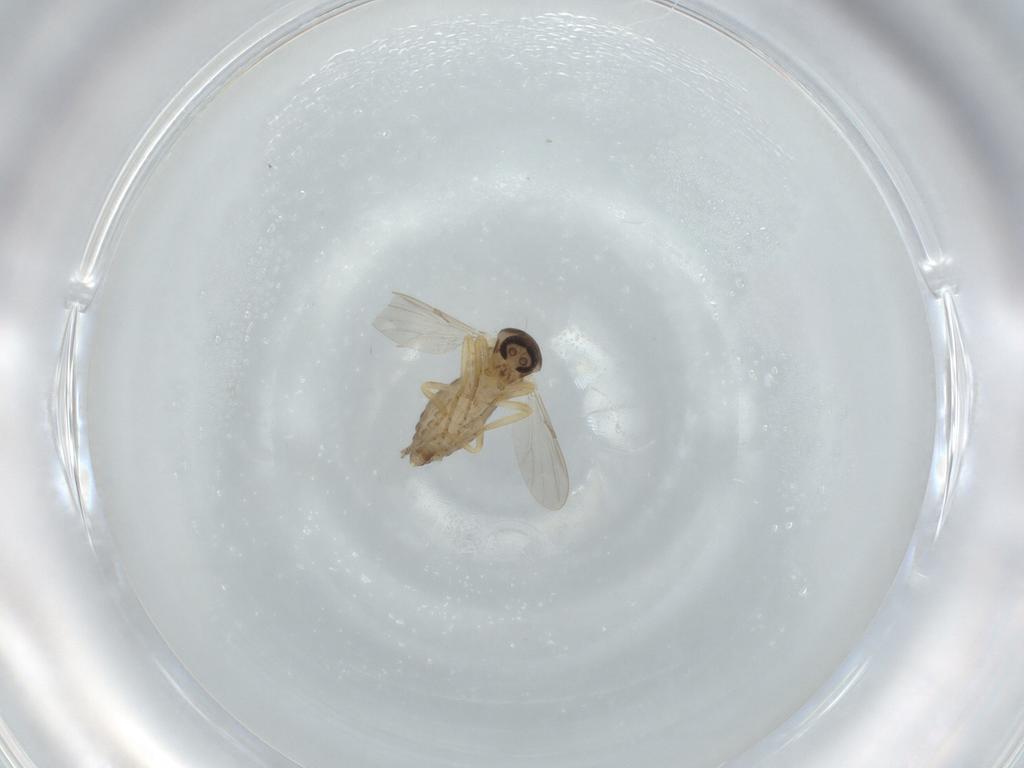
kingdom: Animalia
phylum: Arthropoda
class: Insecta
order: Diptera
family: Ceratopogonidae
